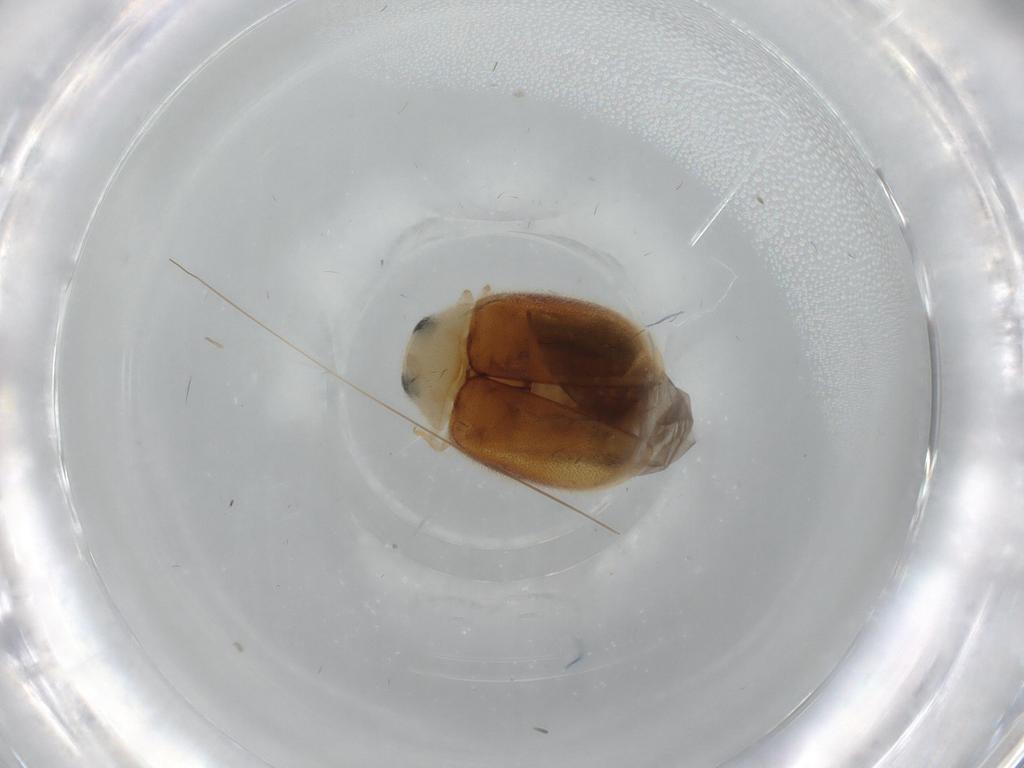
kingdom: Animalia
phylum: Arthropoda
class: Insecta
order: Coleoptera
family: Coccinellidae
